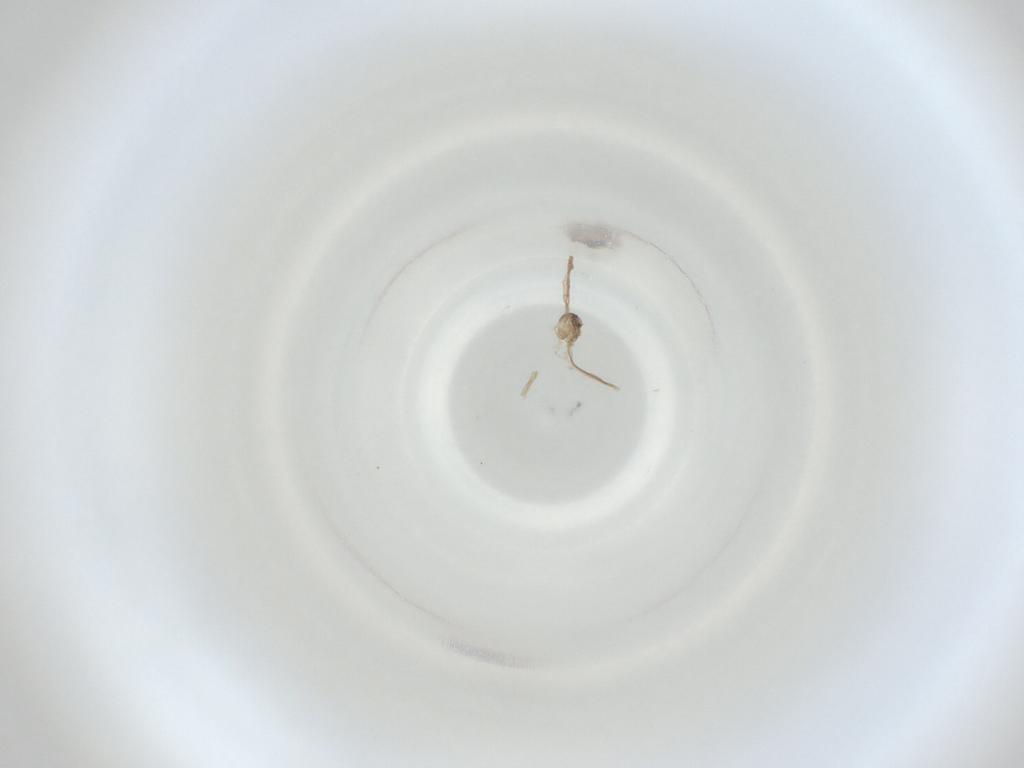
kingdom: Animalia
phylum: Arthropoda
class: Insecta
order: Diptera
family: Cecidomyiidae
